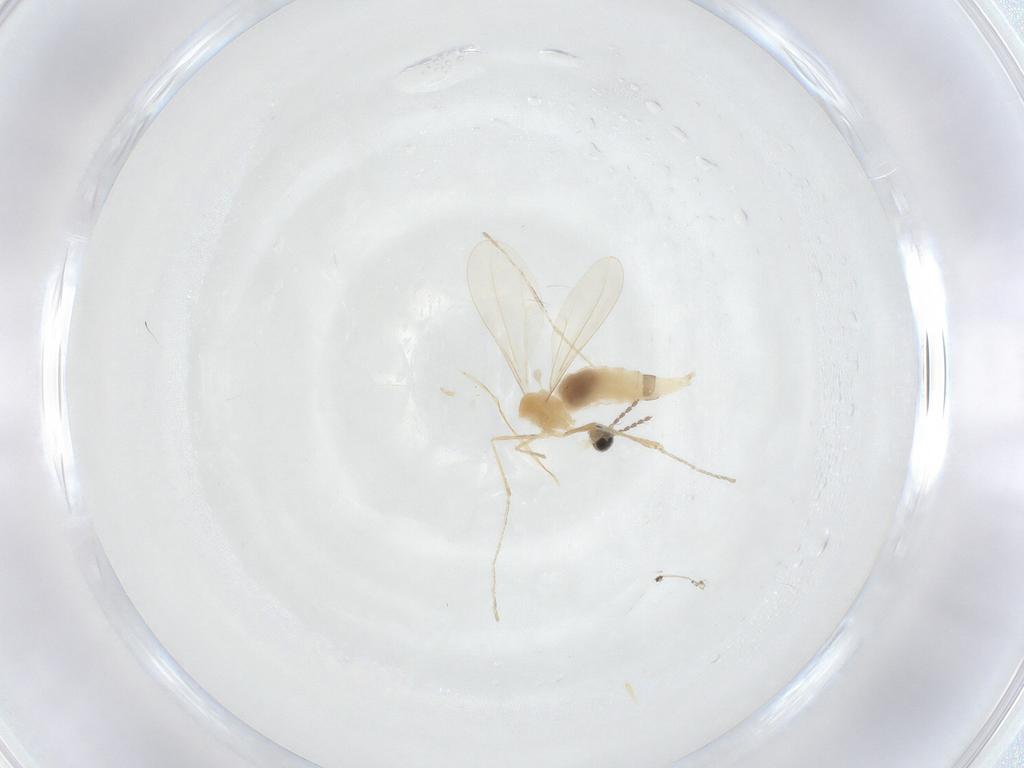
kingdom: Animalia
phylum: Arthropoda
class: Insecta
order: Diptera
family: Cecidomyiidae
